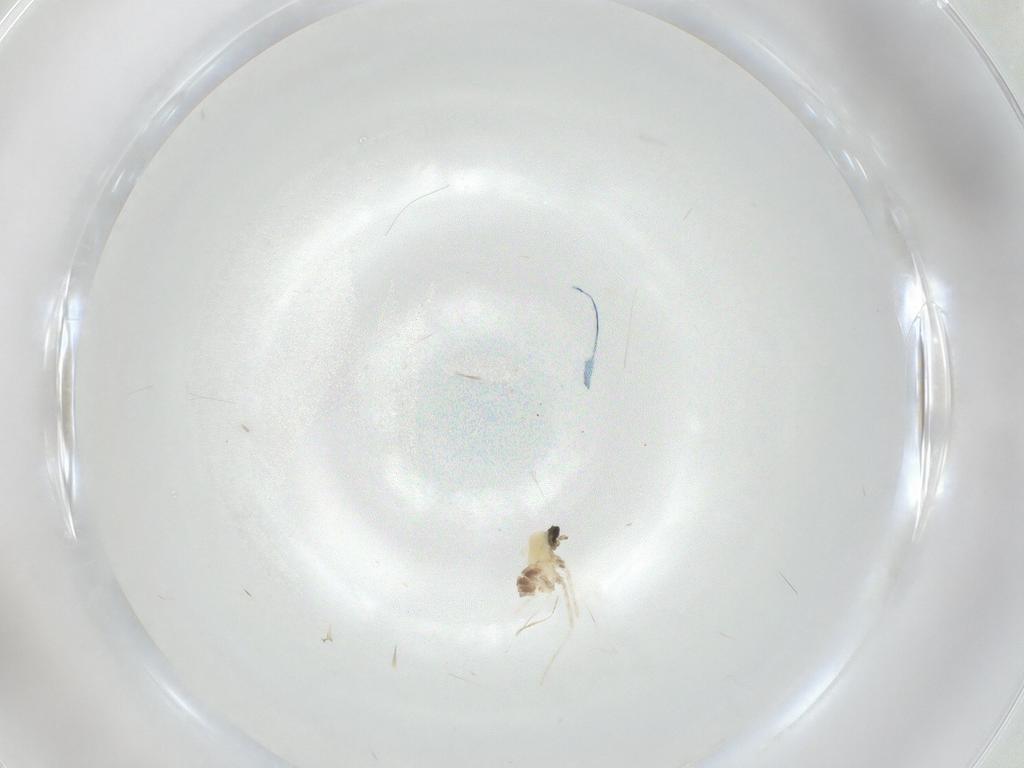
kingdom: Animalia
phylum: Arthropoda
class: Insecta
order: Diptera
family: Cecidomyiidae
